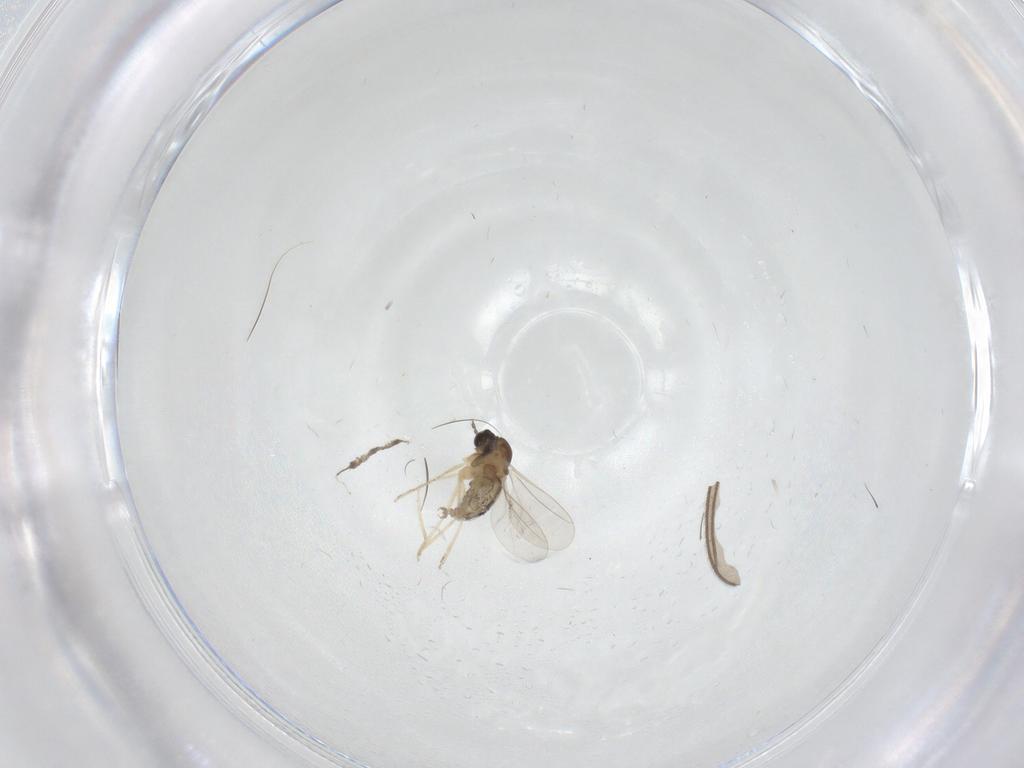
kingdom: Animalia
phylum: Arthropoda
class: Insecta
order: Diptera
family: Cecidomyiidae
